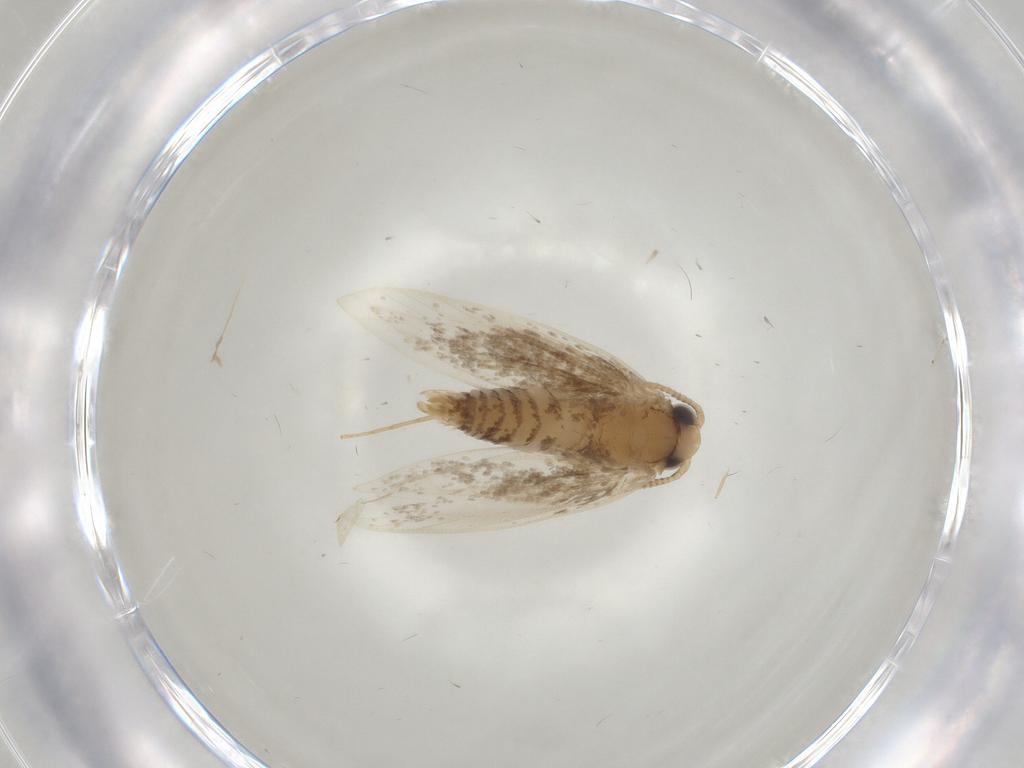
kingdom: Animalia
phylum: Arthropoda
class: Insecta
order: Lepidoptera
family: Tineidae
